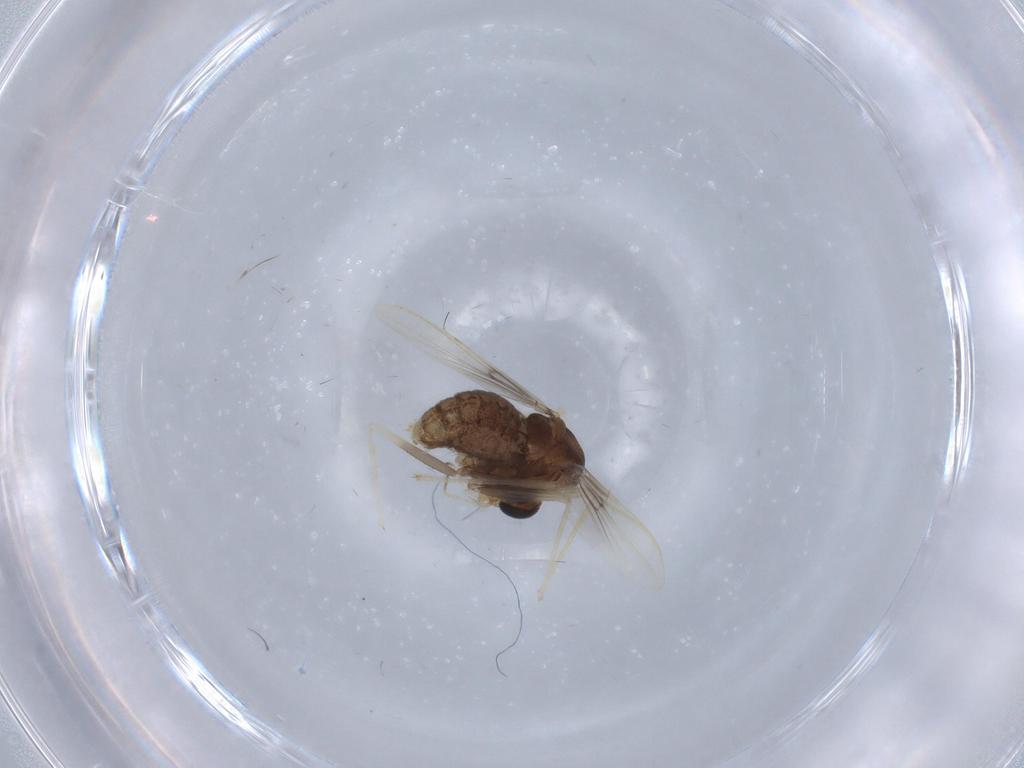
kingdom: Animalia
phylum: Arthropoda
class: Insecta
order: Diptera
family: Chironomidae
